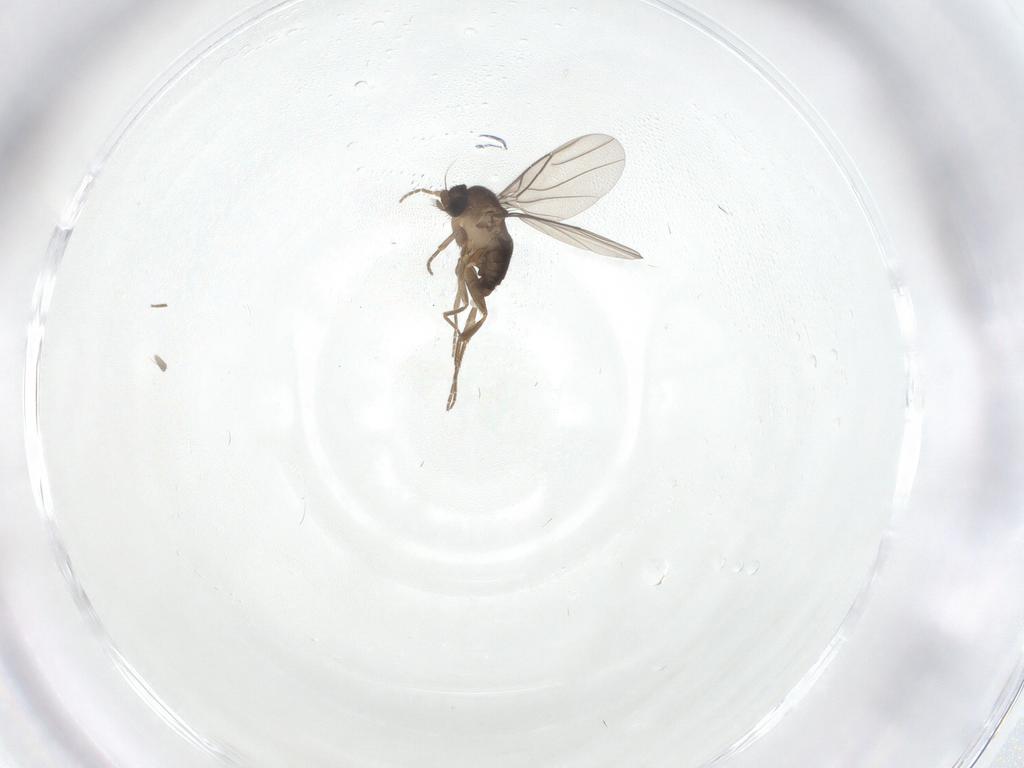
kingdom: Animalia
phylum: Arthropoda
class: Insecta
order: Diptera
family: Phoridae
